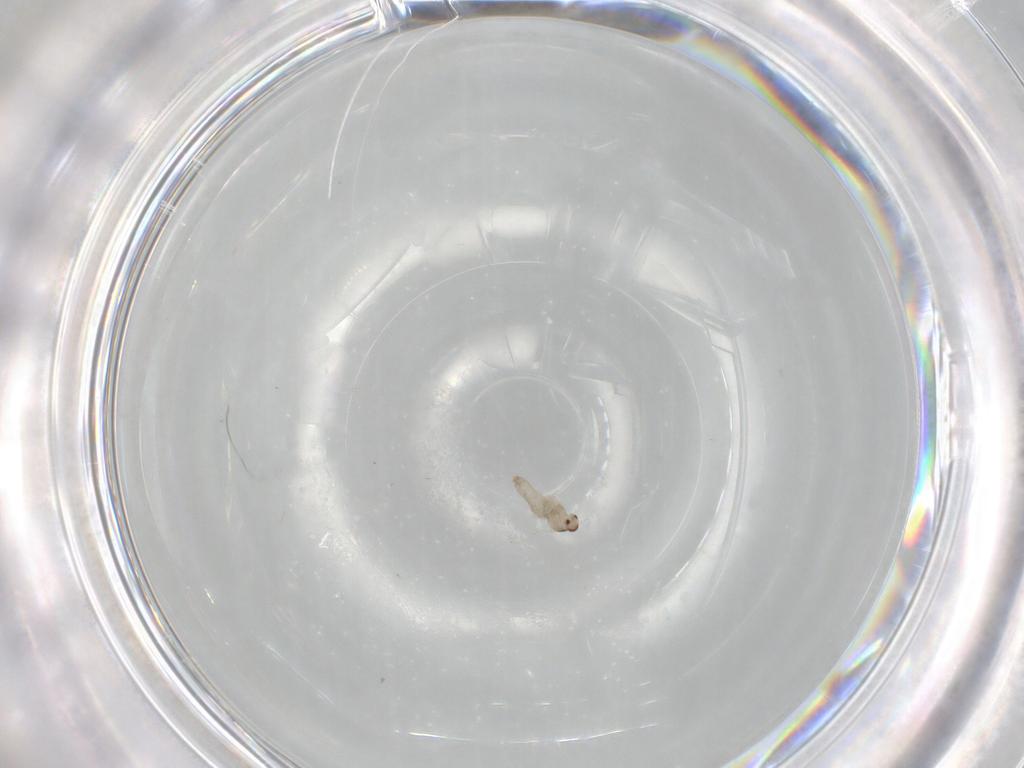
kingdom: Animalia
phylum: Arthropoda
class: Insecta
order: Diptera
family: Cecidomyiidae
